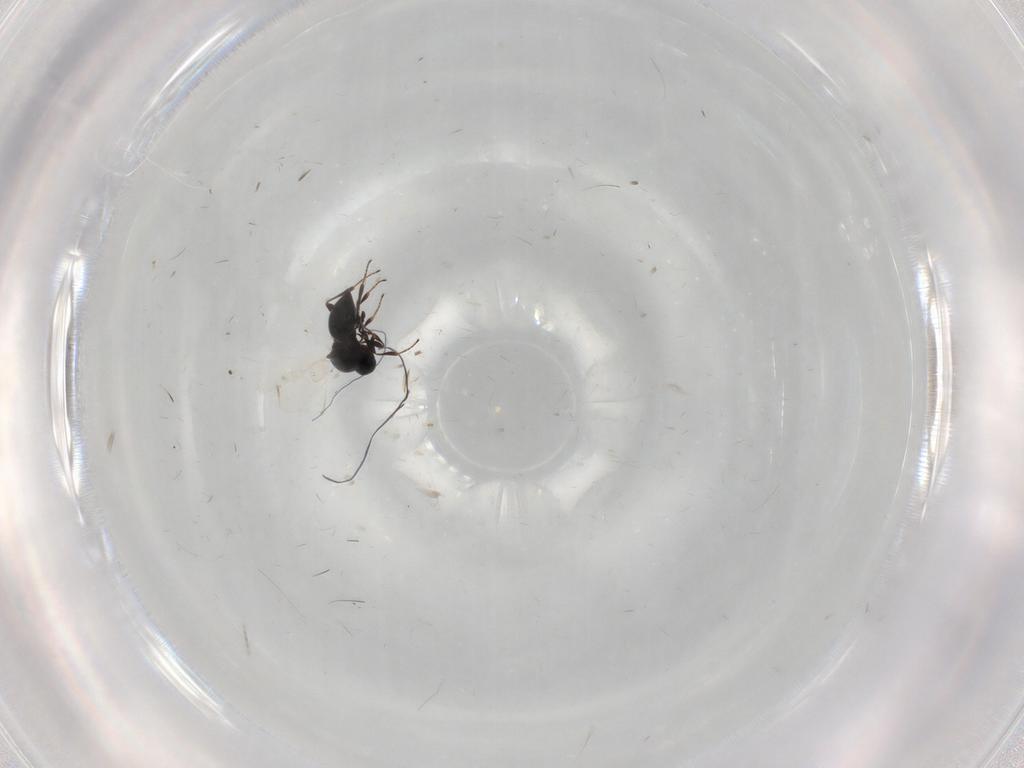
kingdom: Animalia
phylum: Arthropoda
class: Insecta
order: Hymenoptera
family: Platygastridae
